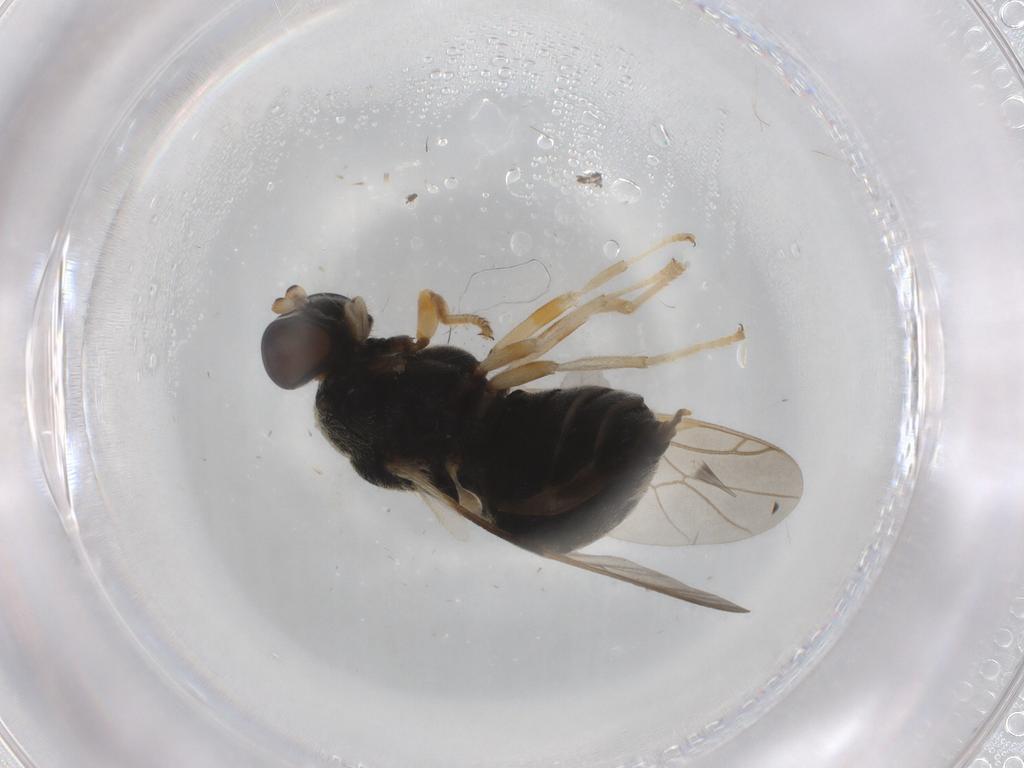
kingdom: Animalia
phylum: Arthropoda
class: Insecta
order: Diptera
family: Stratiomyidae
